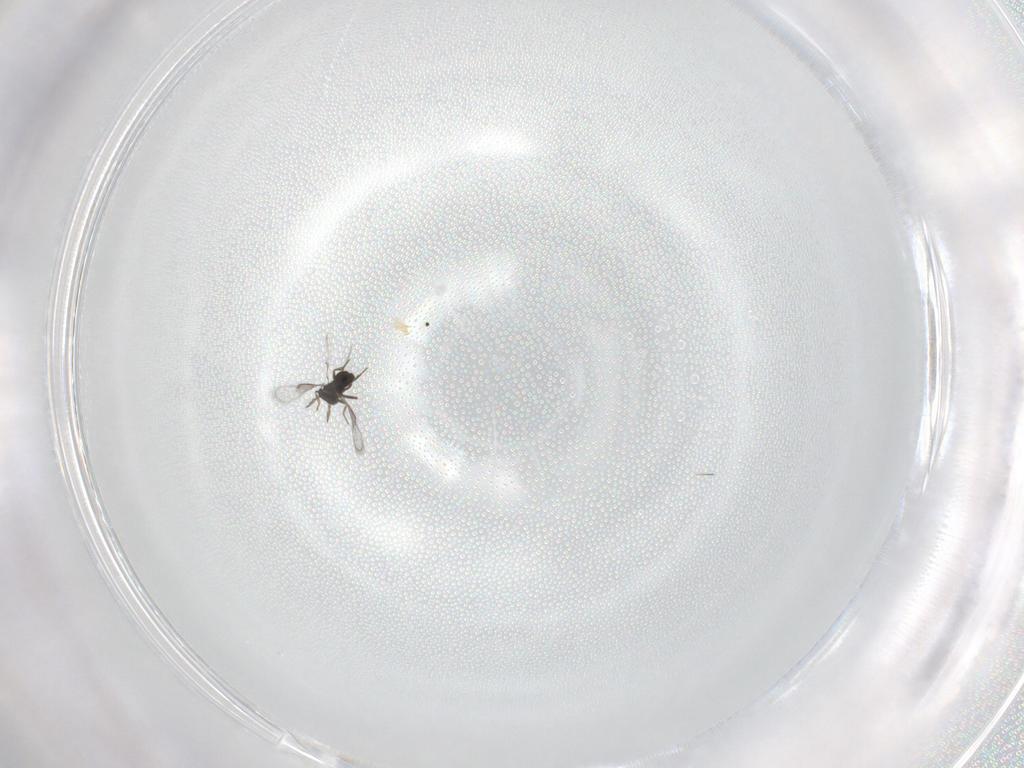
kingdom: Animalia
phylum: Arthropoda
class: Insecta
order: Hymenoptera
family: Trichogrammatidae
